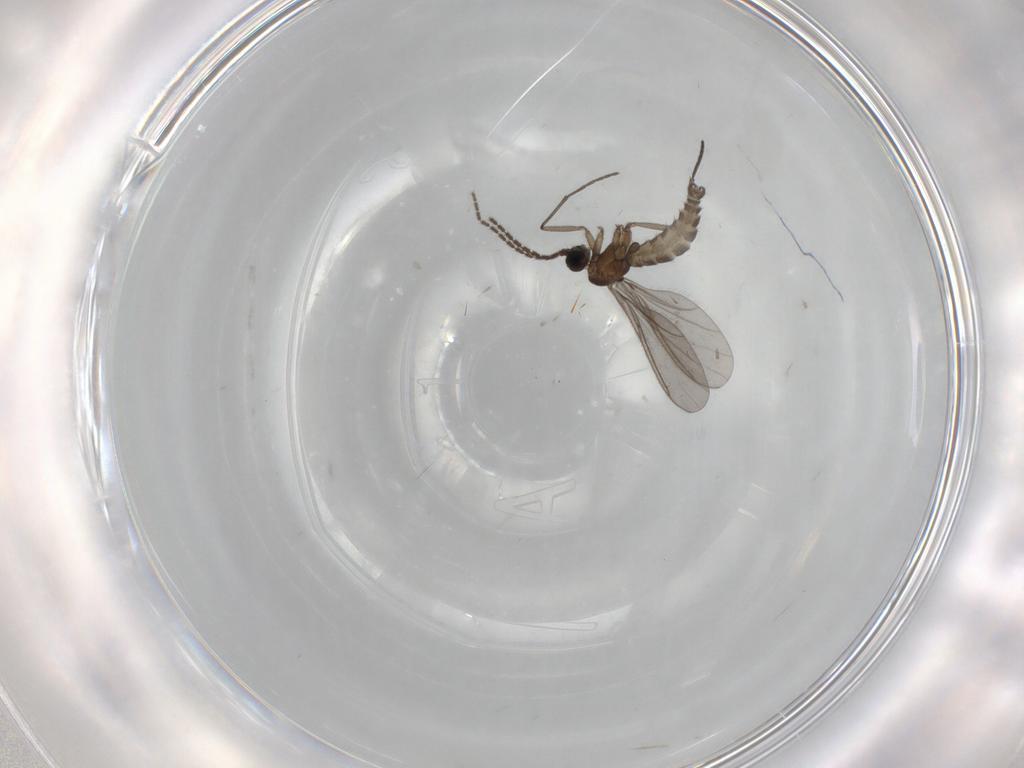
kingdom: Animalia
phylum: Arthropoda
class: Insecta
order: Diptera
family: Sciaridae
